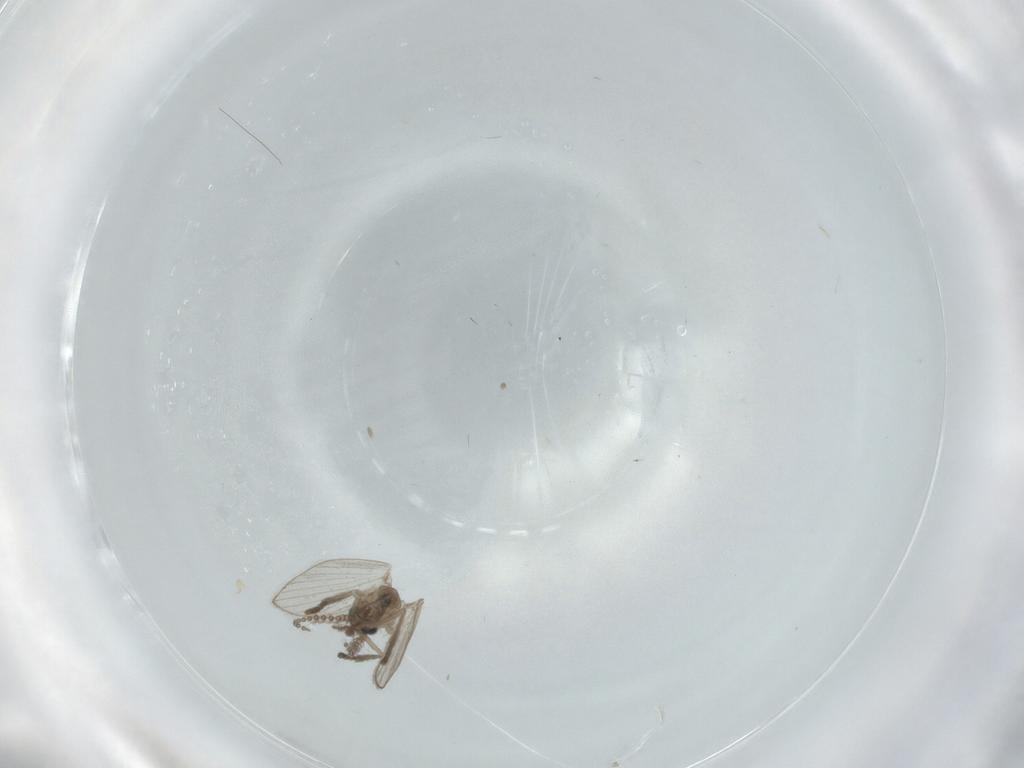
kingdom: Animalia
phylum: Arthropoda
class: Insecta
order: Diptera
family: Psychodidae
